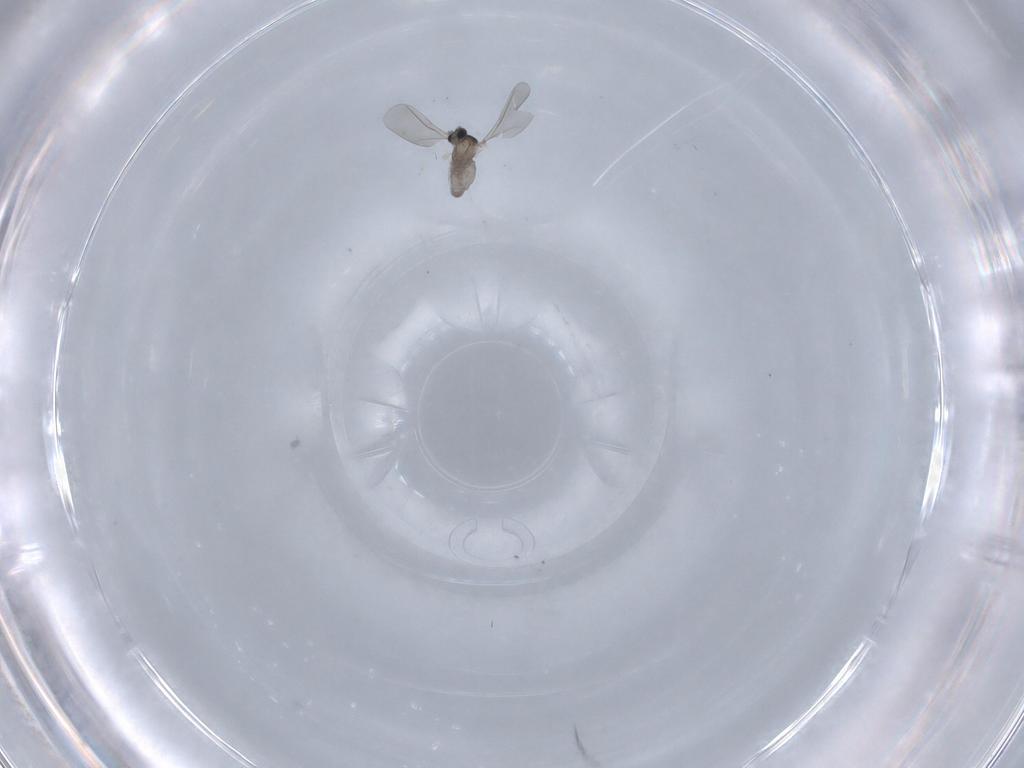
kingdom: Animalia
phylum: Arthropoda
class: Insecta
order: Diptera
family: Cecidomyiidae
